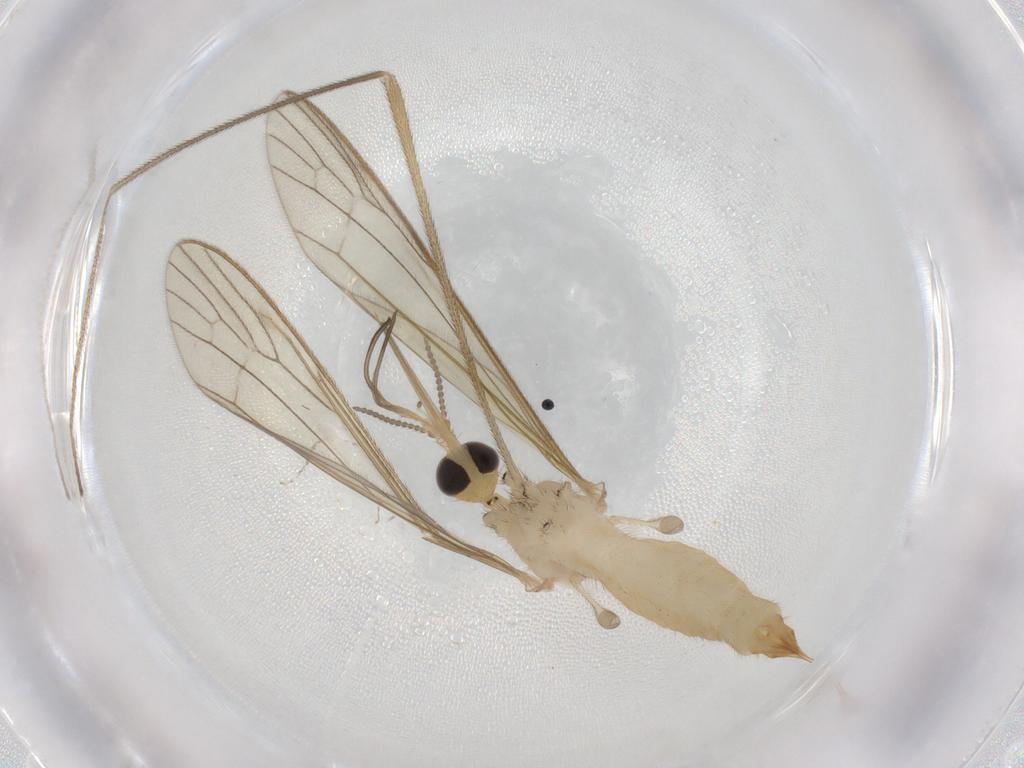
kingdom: Animalia
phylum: Arthropoda
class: Insecta
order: Diptera
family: Dolichopodidae
